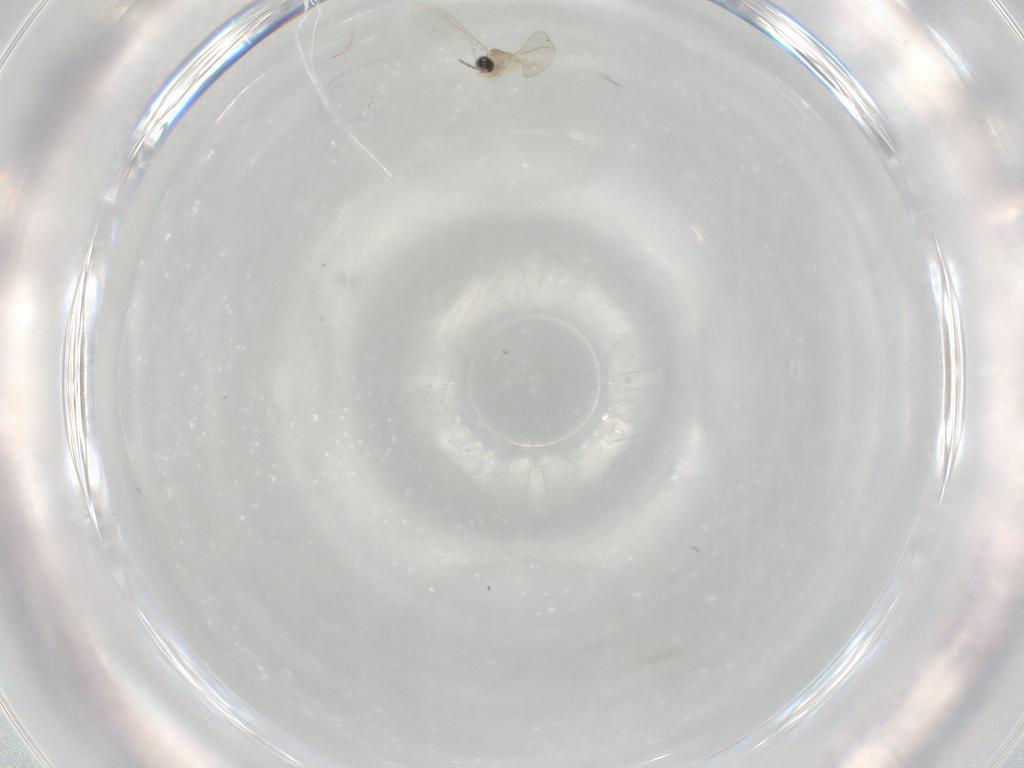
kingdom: Animalia
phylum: Arthropoda
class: Insecta
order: Diptera
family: Cecidomyiidae
